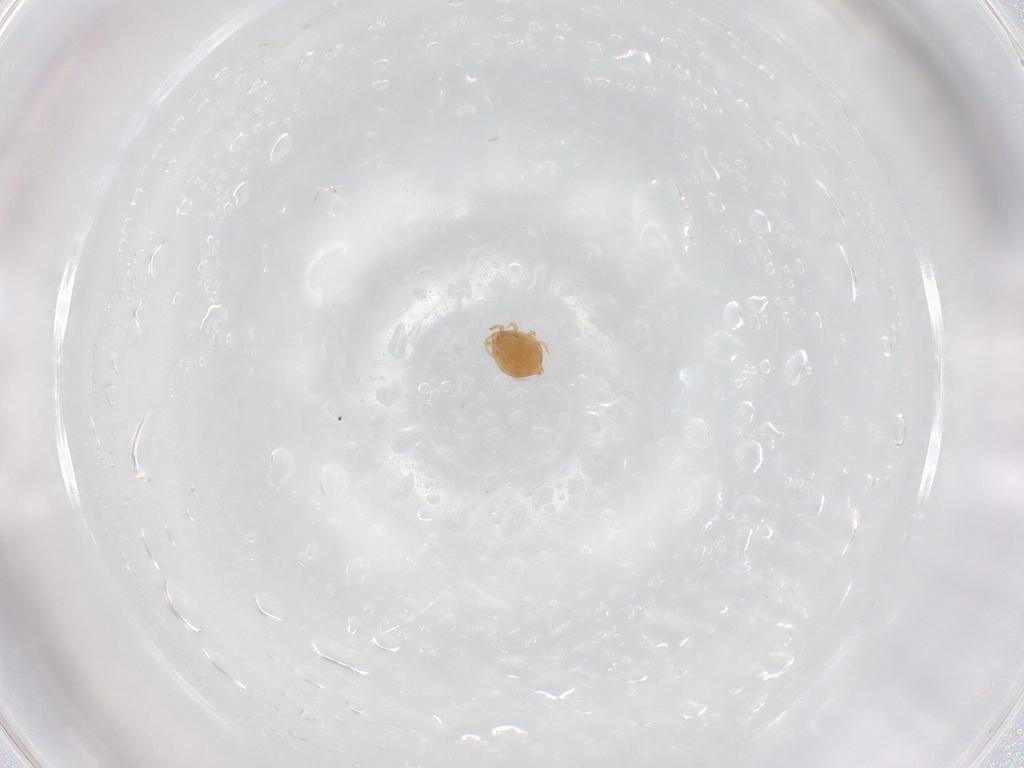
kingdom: Animalia
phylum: Arthropoda
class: Arachnida
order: Mesostigmata
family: Polyaspididae
